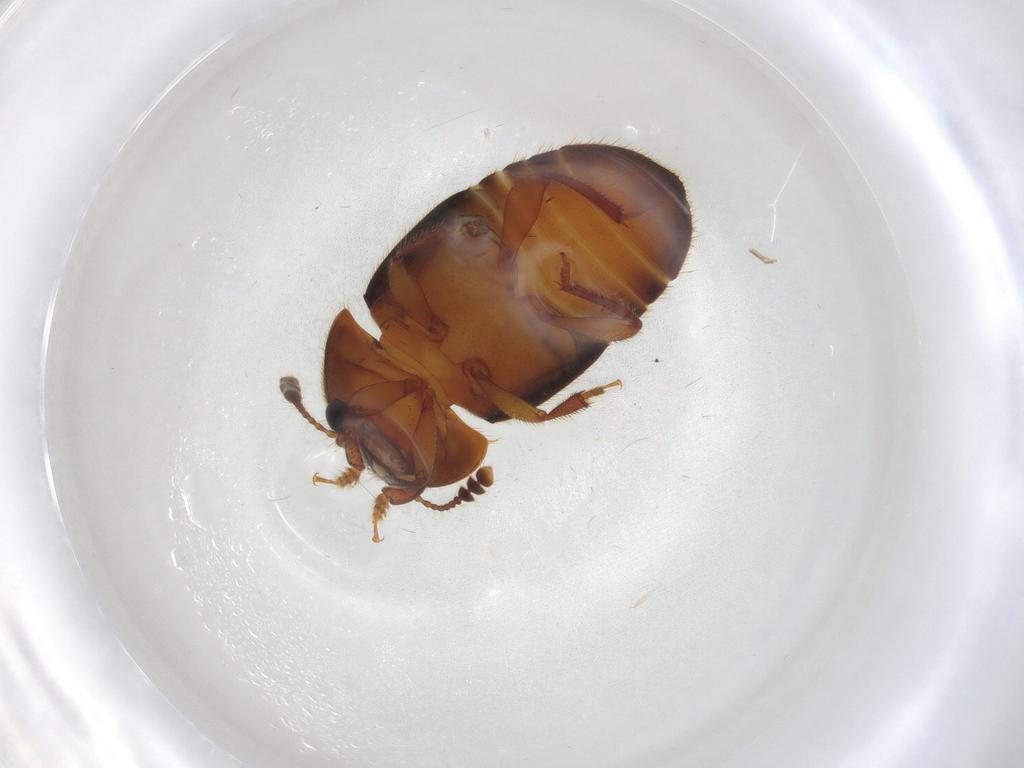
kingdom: Animalia
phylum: Arthropoda
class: Insecta
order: Coleoptera
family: Nitidulidae
